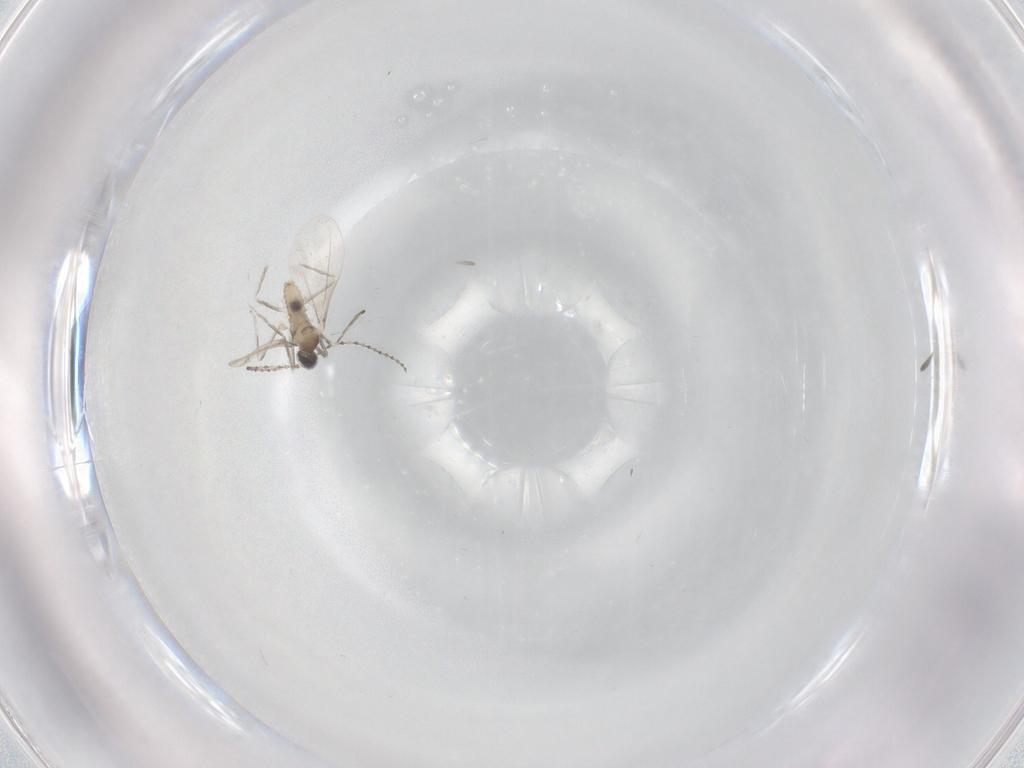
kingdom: Animalia
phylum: Arthropoda
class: Insecta
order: Diptera
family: Cecidomyiidae
